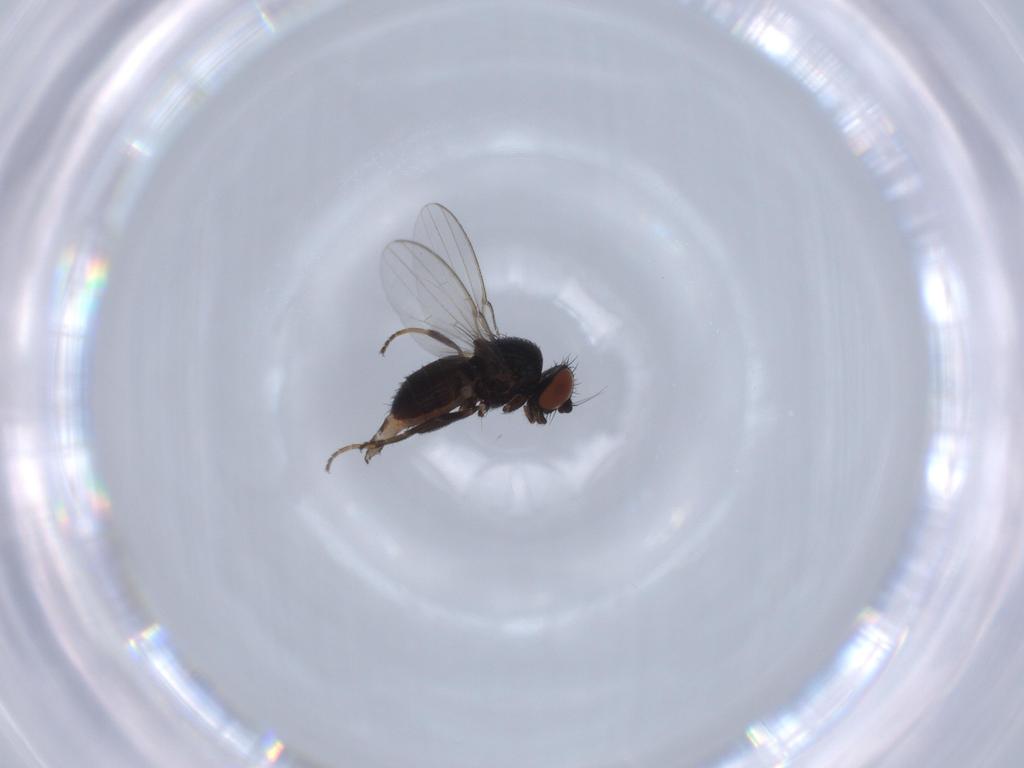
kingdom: Animalia
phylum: Arthropoda
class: Insecta
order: Diptera
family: Milichiidae
